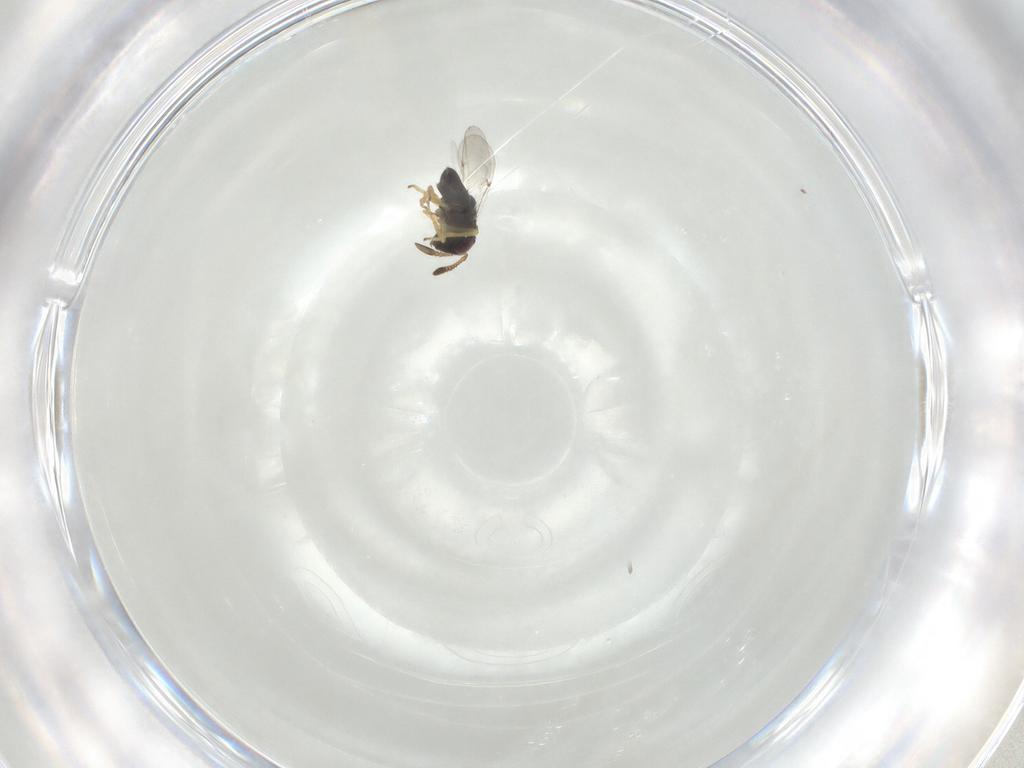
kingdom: Animalia
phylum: Arthropoda
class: Insecta
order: Hymenoptera
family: Encyrtidae
